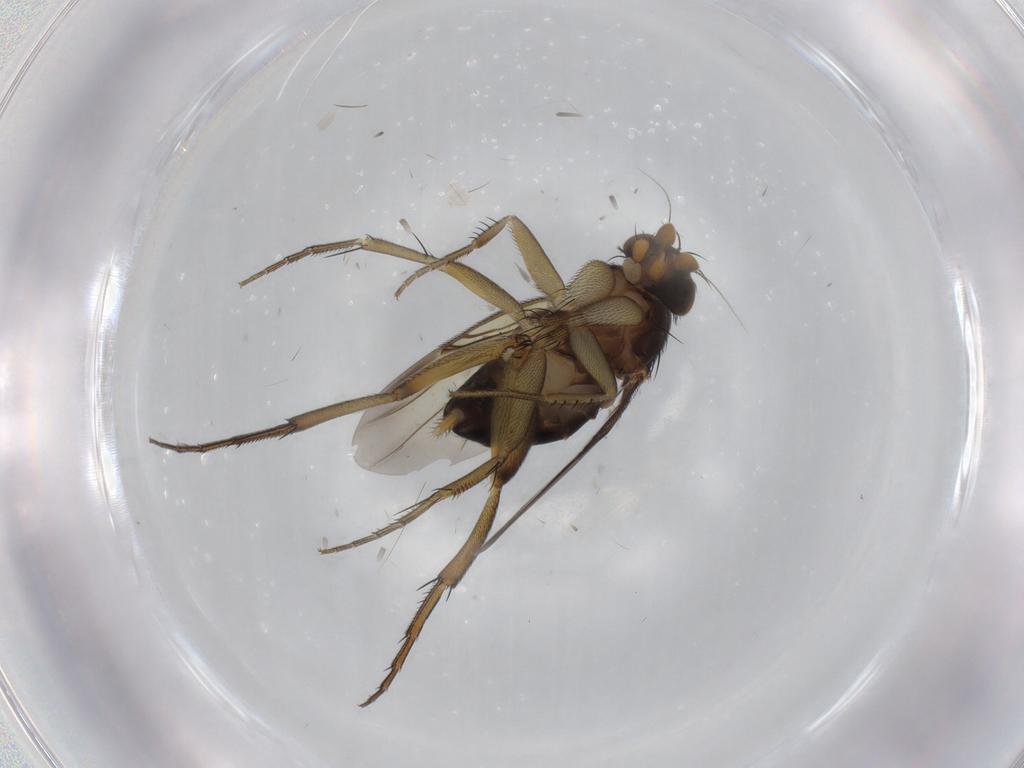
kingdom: Animalia
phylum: Arthropoda
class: Insecta
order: Diptera
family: Phoridae
